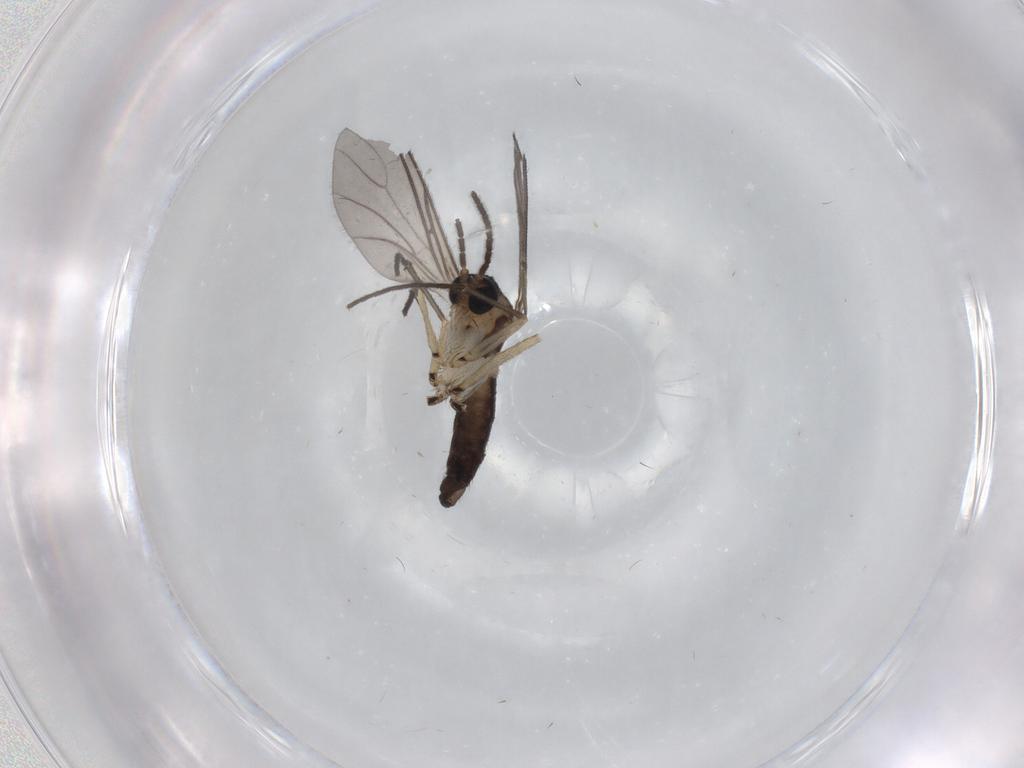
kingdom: Animalia
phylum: Arthropoda
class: Insecta
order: Diptera
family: Sciaridae
